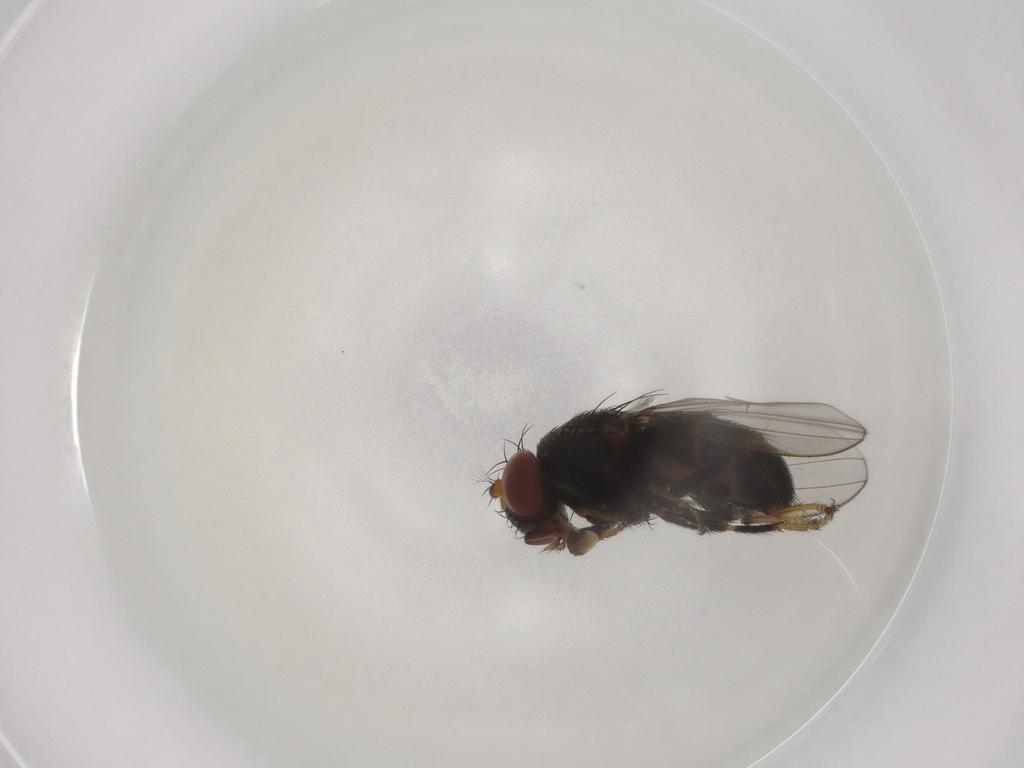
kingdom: Animalia
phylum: Arthropoda
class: Insecta
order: Diptera
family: Ephydridae
